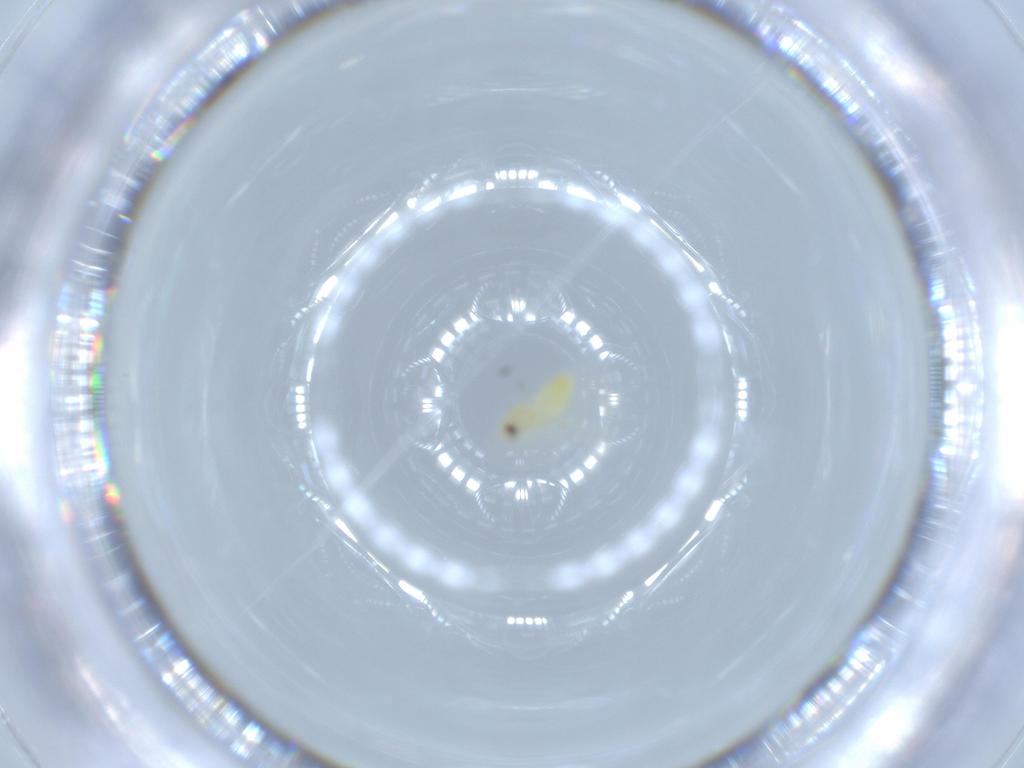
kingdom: Animalia
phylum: Arthropoda
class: Insecta
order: Hemiptera
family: Aleyrodidae
